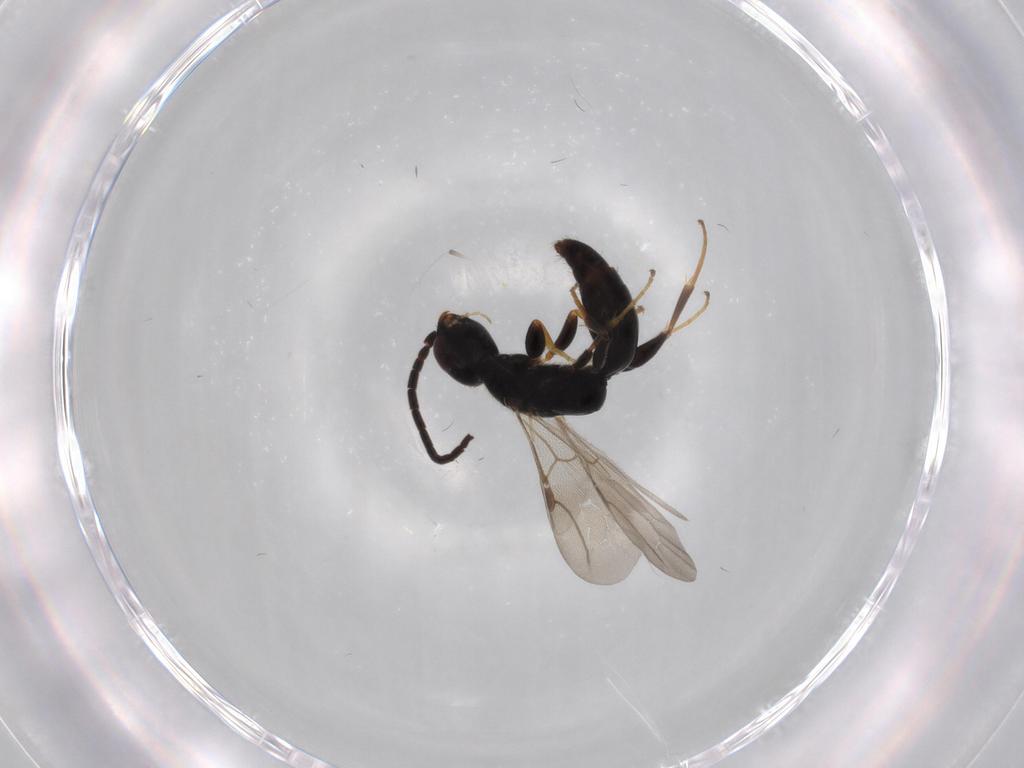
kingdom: Animalia
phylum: Arthropoda
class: Insecta
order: Hymenoptera
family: Bethylidae
